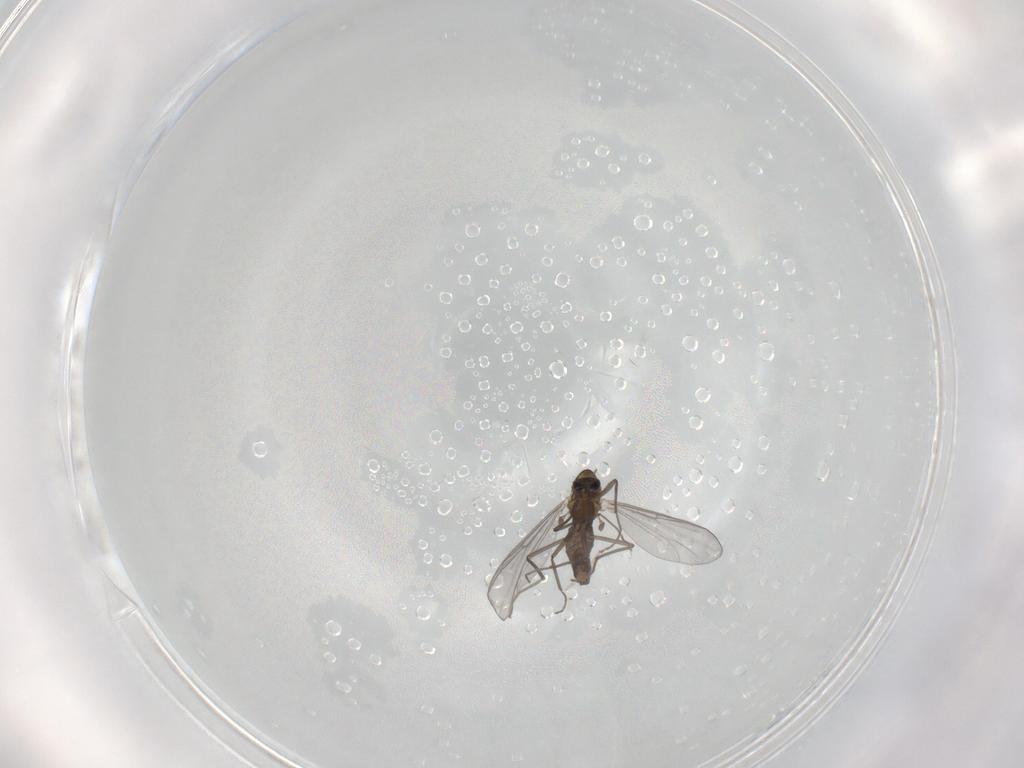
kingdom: Animalia
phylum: Arthropoda
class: Insecta
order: Diptera
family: Chironomidae
